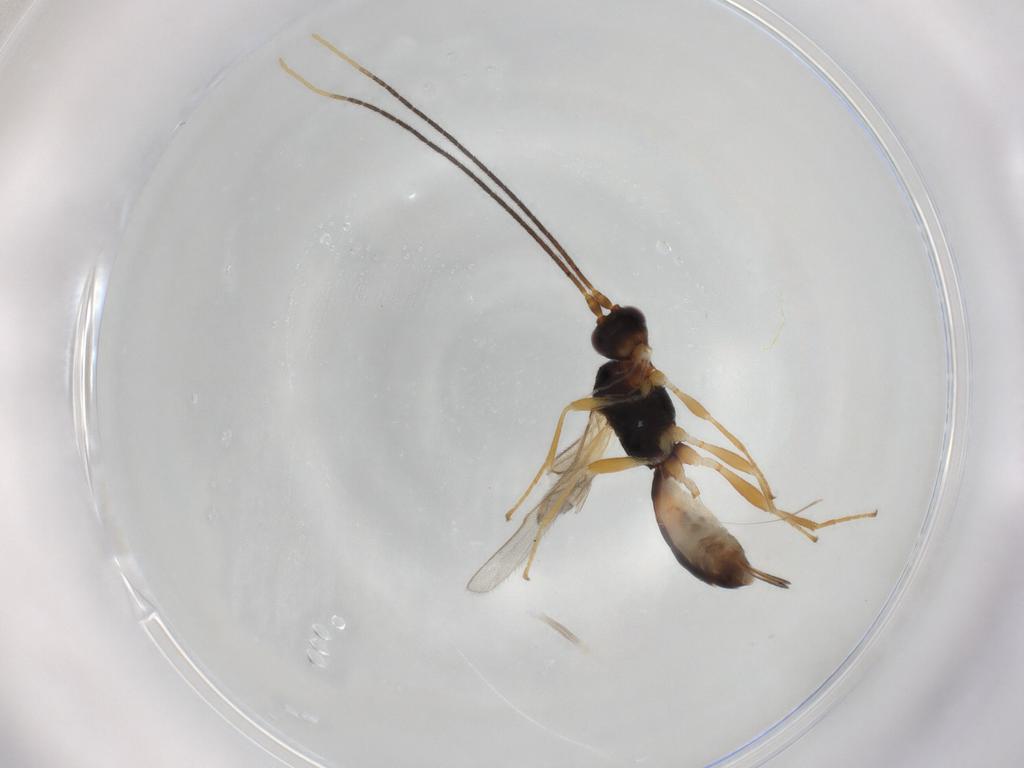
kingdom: Animalia
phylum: Arthropoda
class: Insecta
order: Hymenoptera
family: Braconidae
